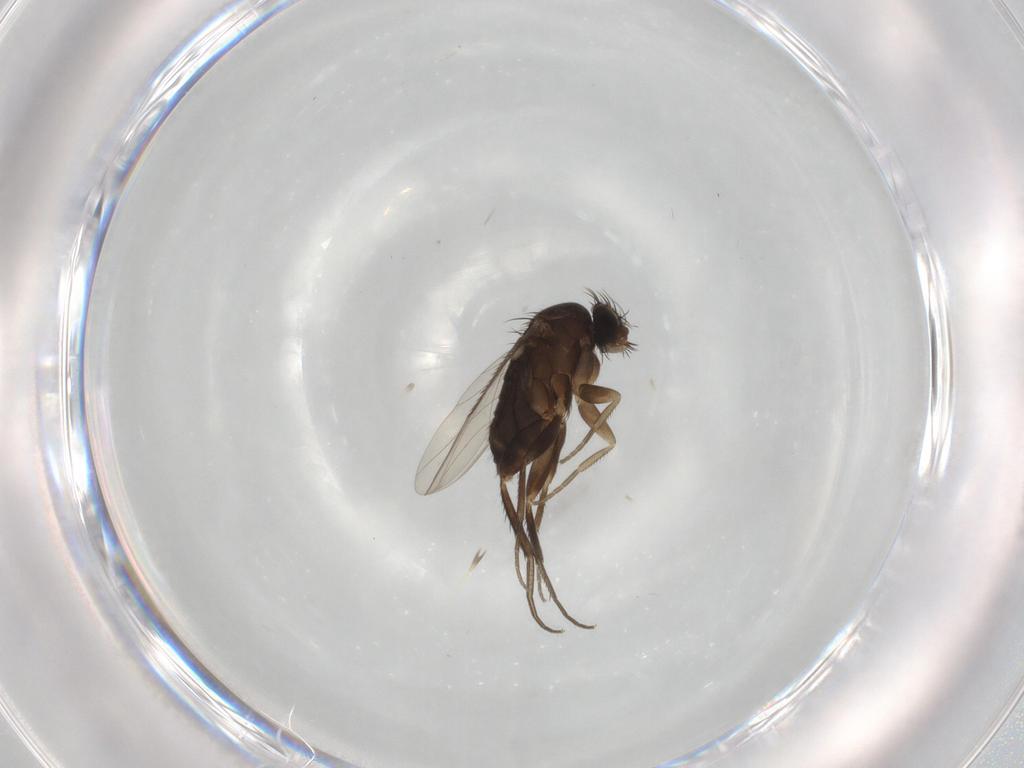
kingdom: Animalia
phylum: Arthropoda
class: Insecta
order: Diptera
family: Phoridae
